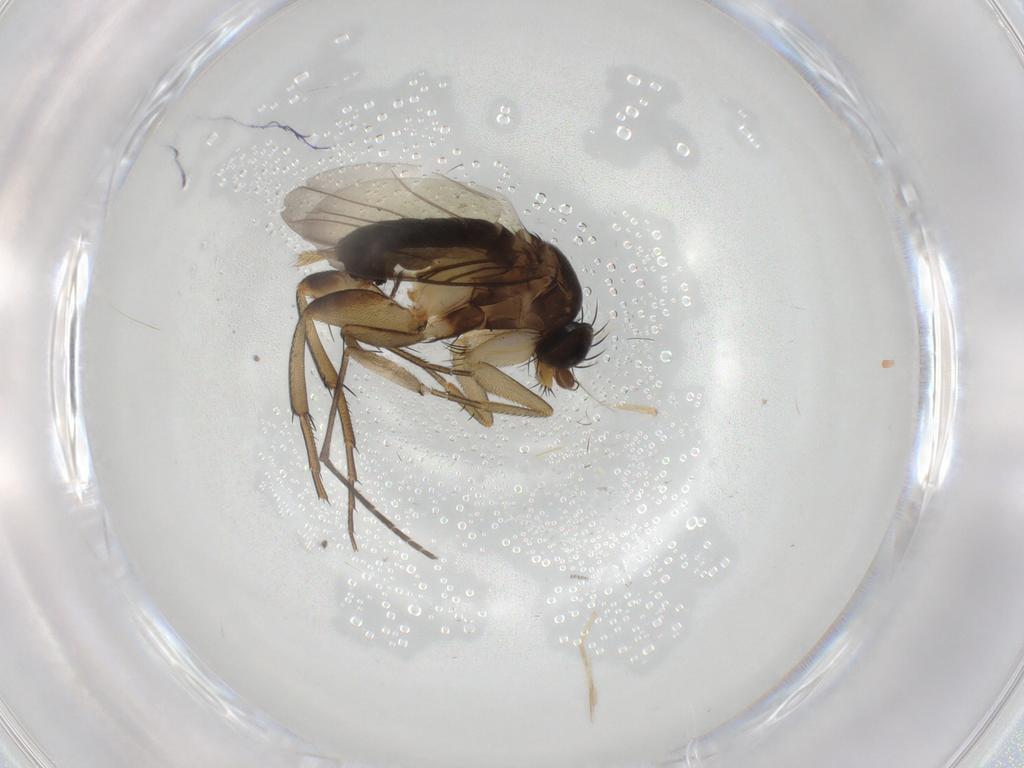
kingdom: Animalia
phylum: Arthropoda
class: Insecta
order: Diptera
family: Phoridae
